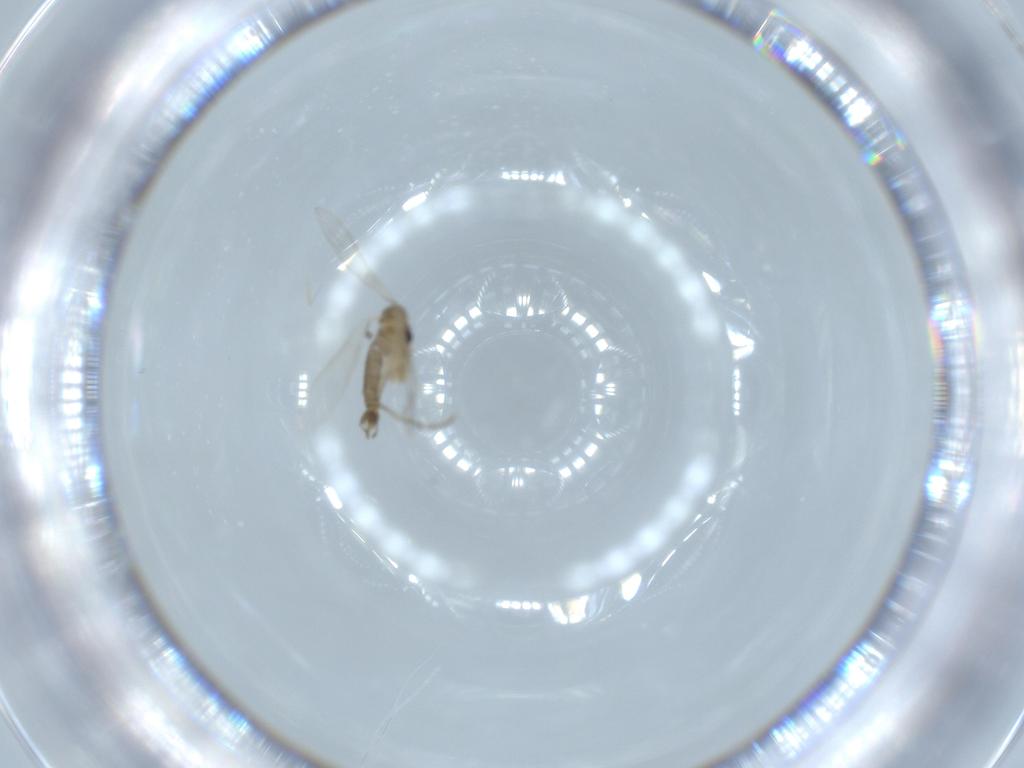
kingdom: Animalia
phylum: Arthropoda
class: Insecta
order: Diptera
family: Psychodidae
